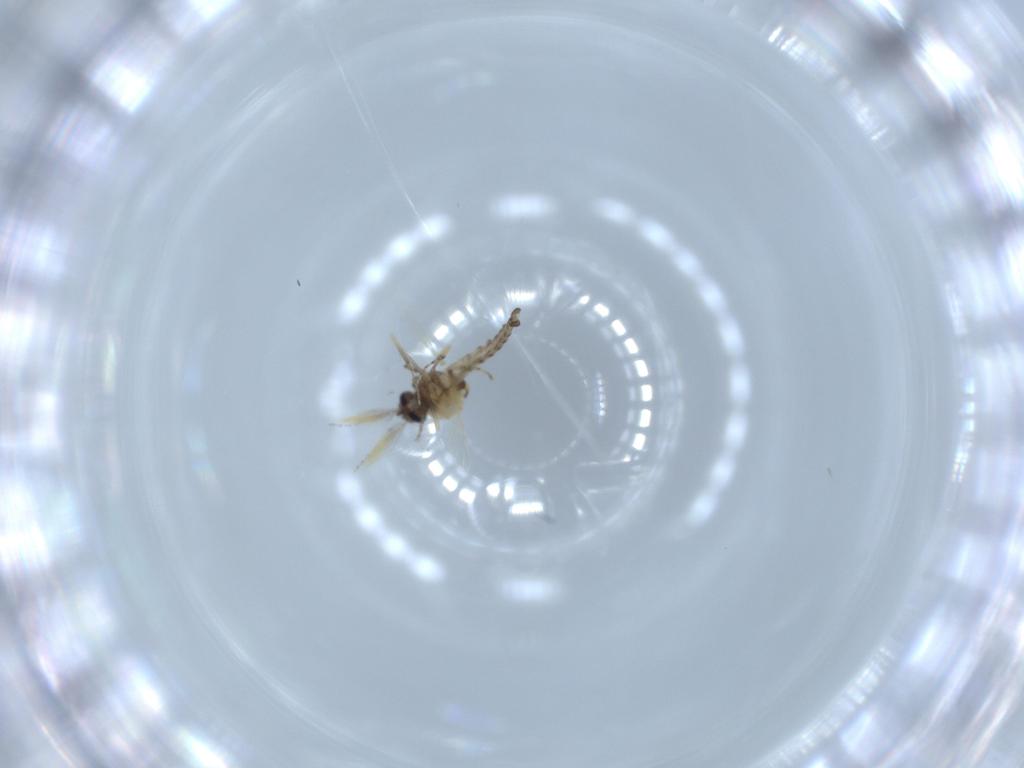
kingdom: Animalia
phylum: Arthropoda
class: Insecta
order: Diptera
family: Ceratopogonidae
